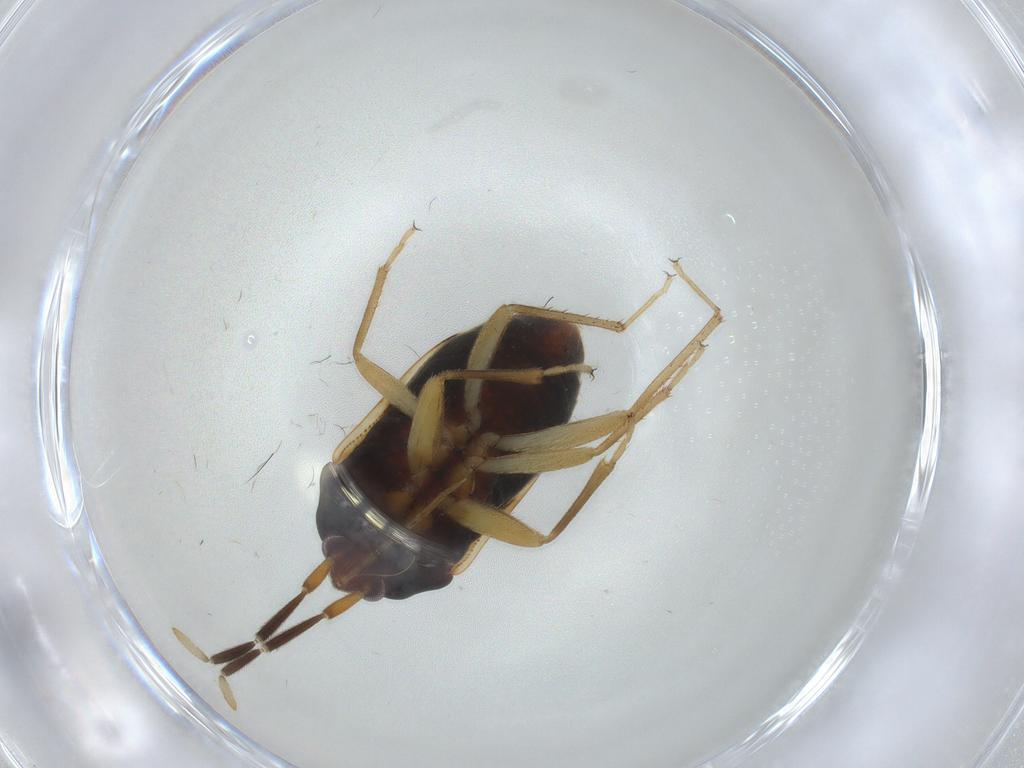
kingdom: Animalia
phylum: Arthropoda
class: Insecta
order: Hemiptera
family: Rhyparochromidae
